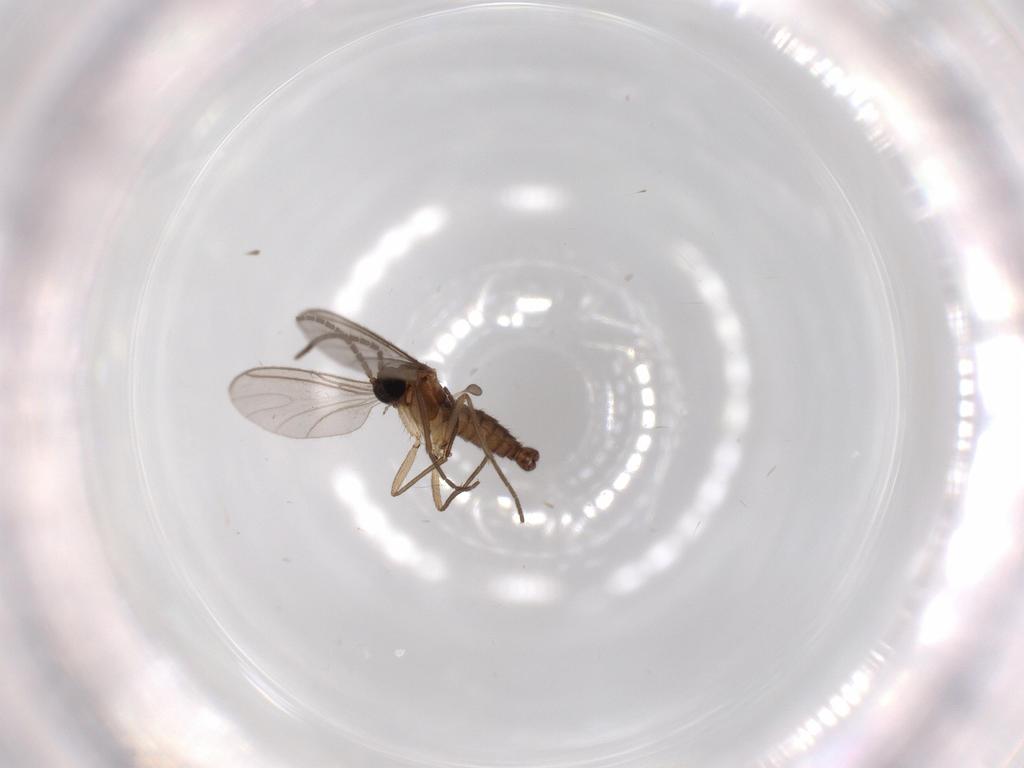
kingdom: Animalia
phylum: Arthropoda
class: Insecta
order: Diptera
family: Sciaridae
